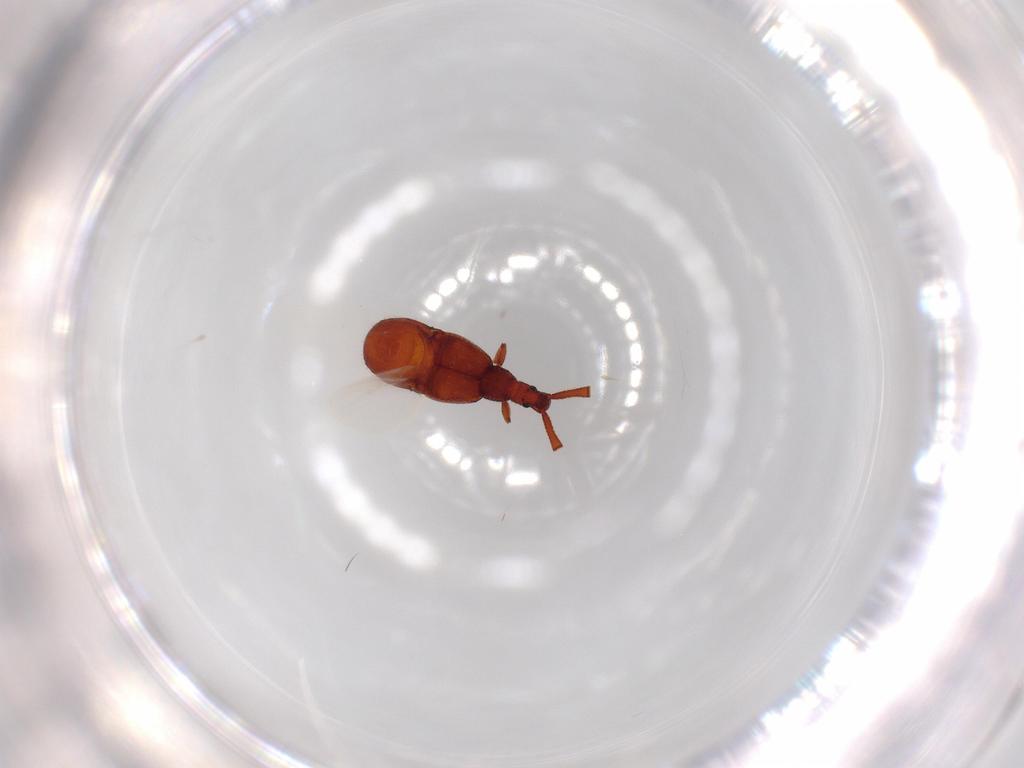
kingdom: Animalia
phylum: Arthropoda
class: Insecta
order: Coleoptera
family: Staphylinidae
